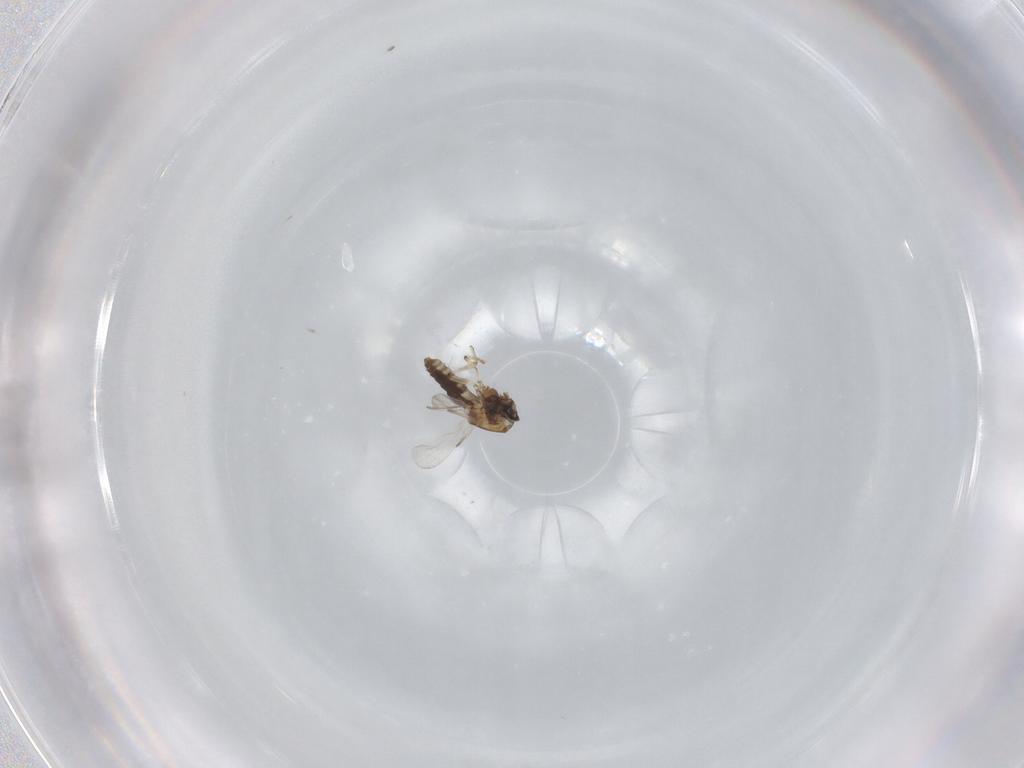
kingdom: Animalia
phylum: Arthropoda
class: Insecta
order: Diptera
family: Ceratopogonidae
